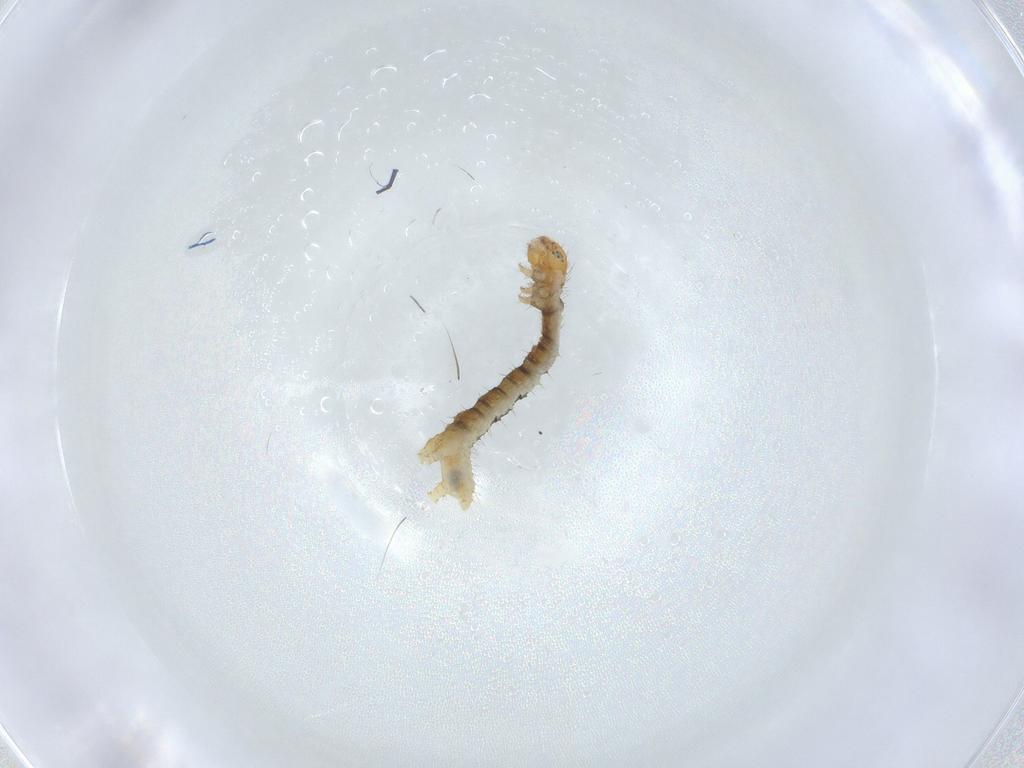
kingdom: Animalia
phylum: Arthropoda
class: Insecta
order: Lepidoptera
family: Geometridae
